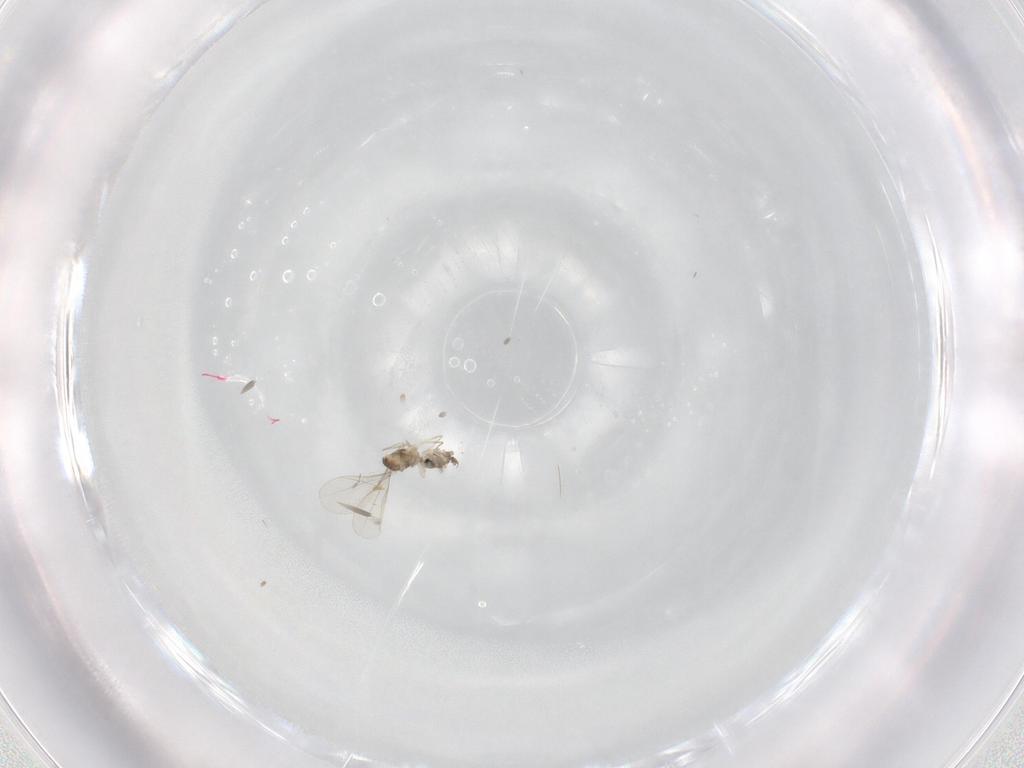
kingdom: Animalia
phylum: Arthropoda
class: Insecta
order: Diptera
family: Cecidomyiidae
